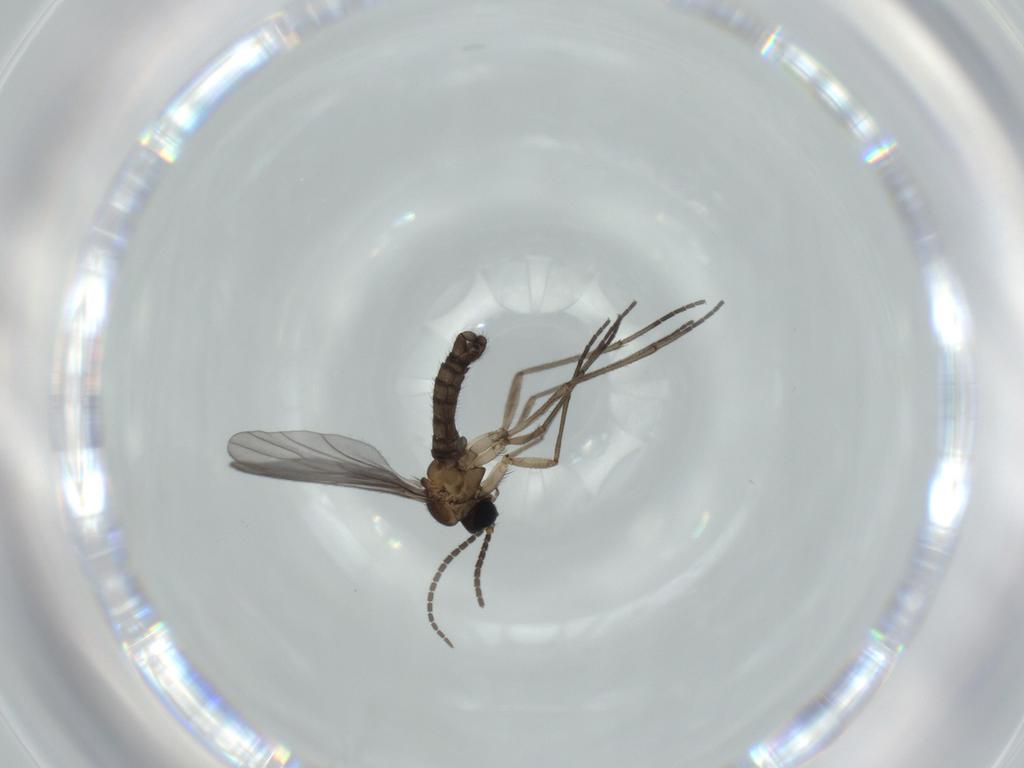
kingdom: Animalia
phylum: Arthropoda
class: Insecta
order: Diptera
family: Sciaridae
